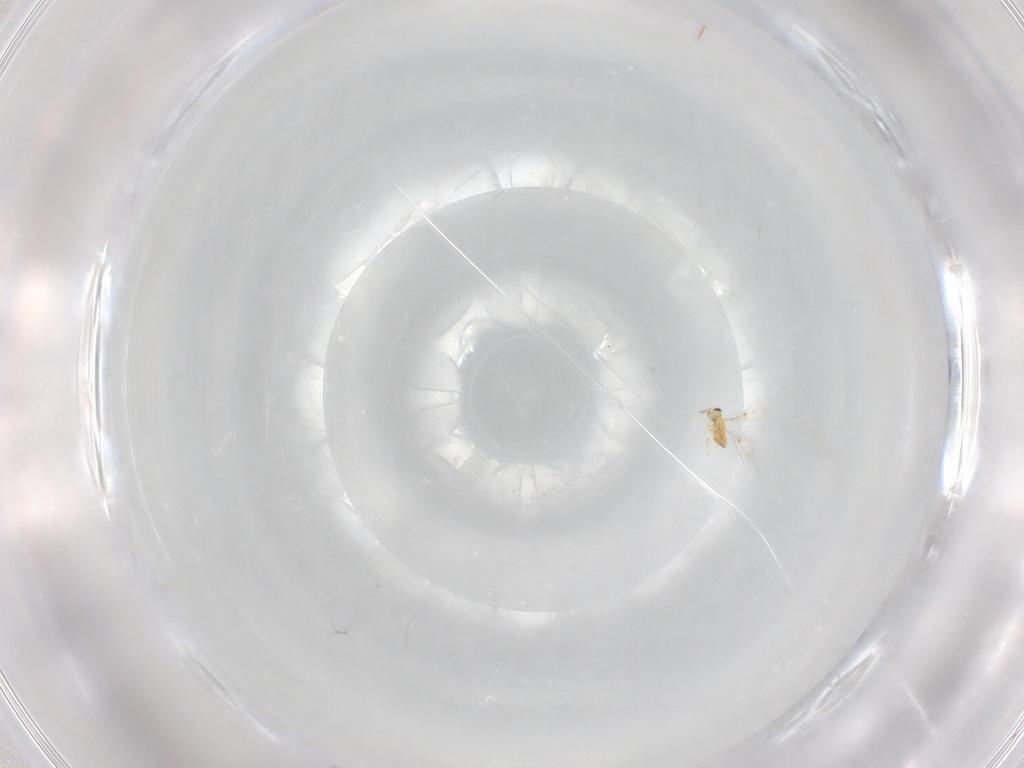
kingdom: Animalia
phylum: Arthropoda
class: Insecta
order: Hymenoptera
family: Trichogrammatidae
